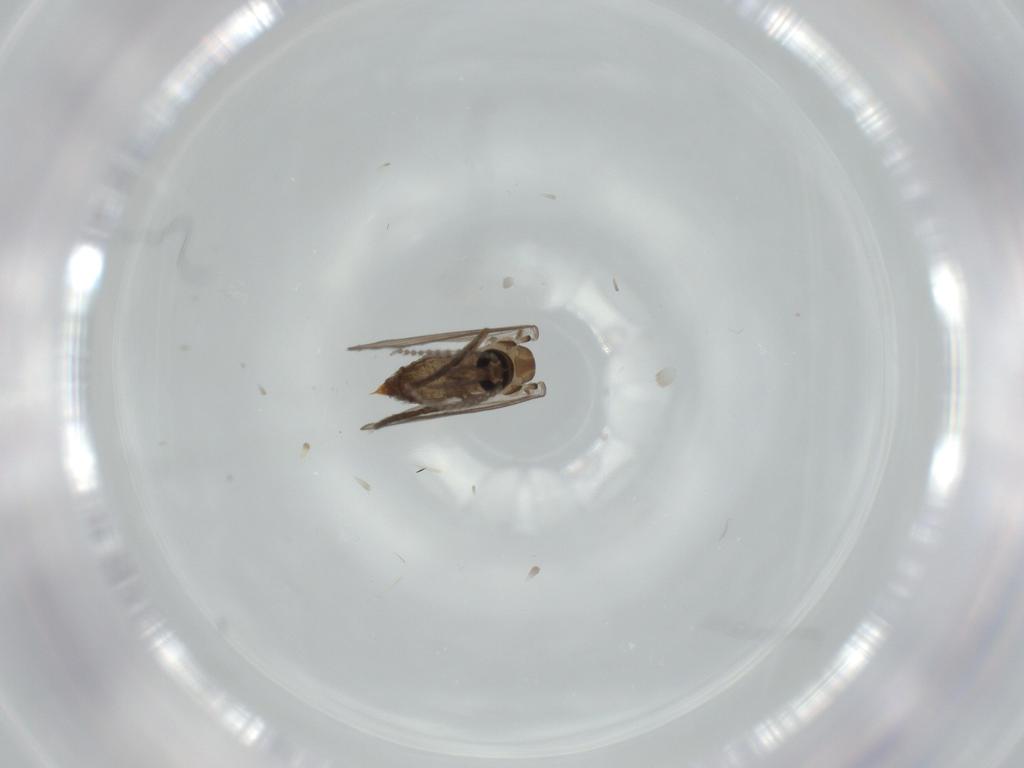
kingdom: Animalia
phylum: Arthropoda
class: Insecta
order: Diptera
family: Psychodidae
